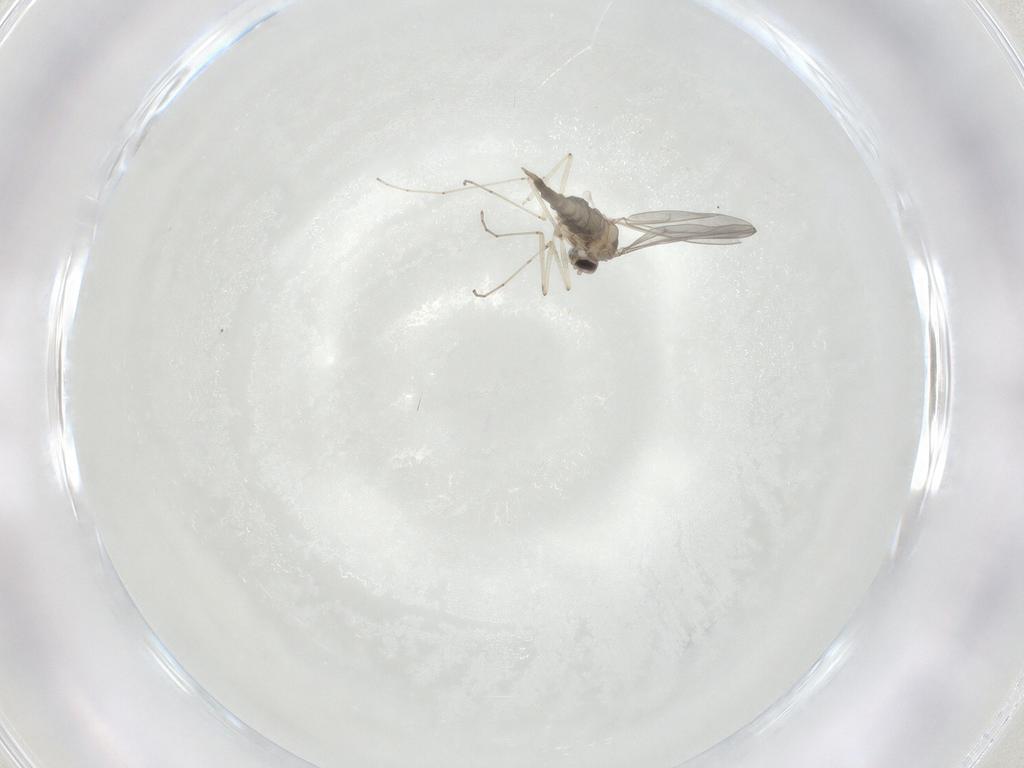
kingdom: Animalia
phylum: Arthropoda
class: Insecta
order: Diptera
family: Cecidomyiidae
